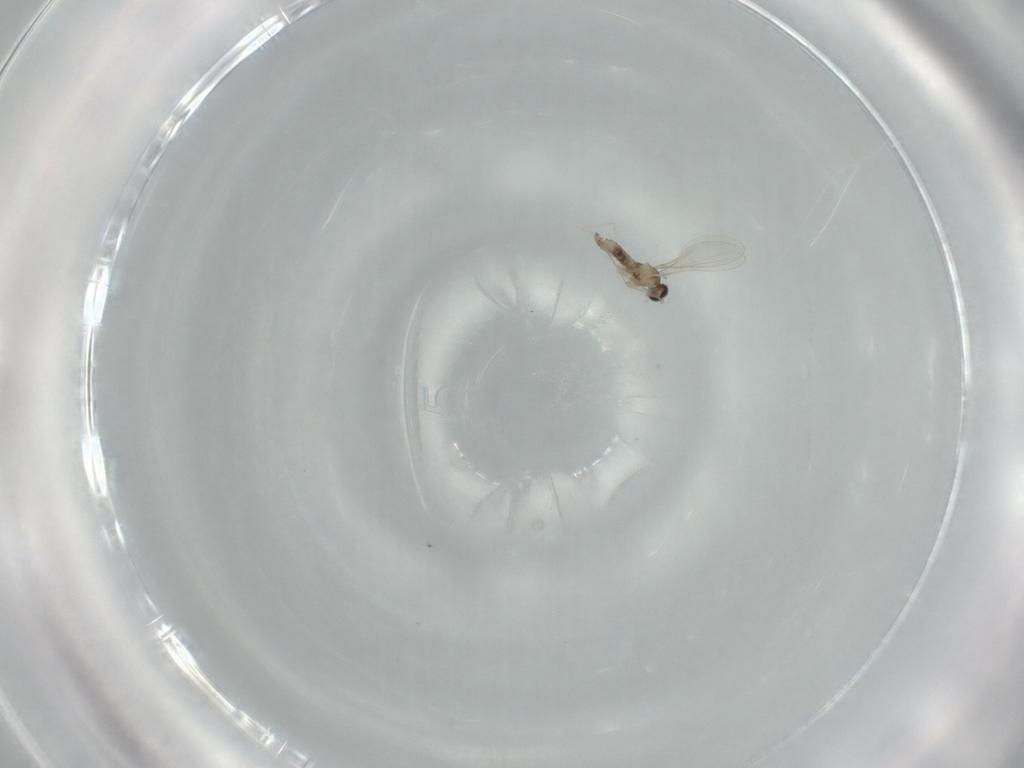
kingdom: Animalia
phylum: Arthropoda
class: Insecta
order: Diptera
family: Cecidomyiidae
